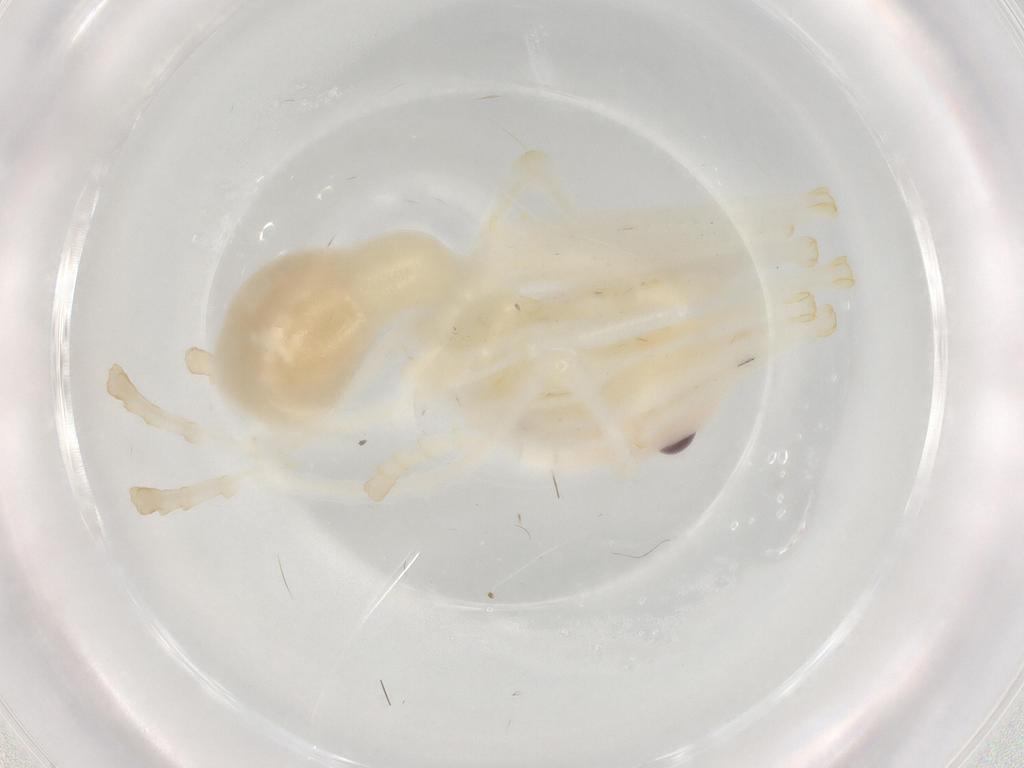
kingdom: Animalia
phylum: Arthropoda
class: Insecta
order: Hymenoptera
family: Formicidae
